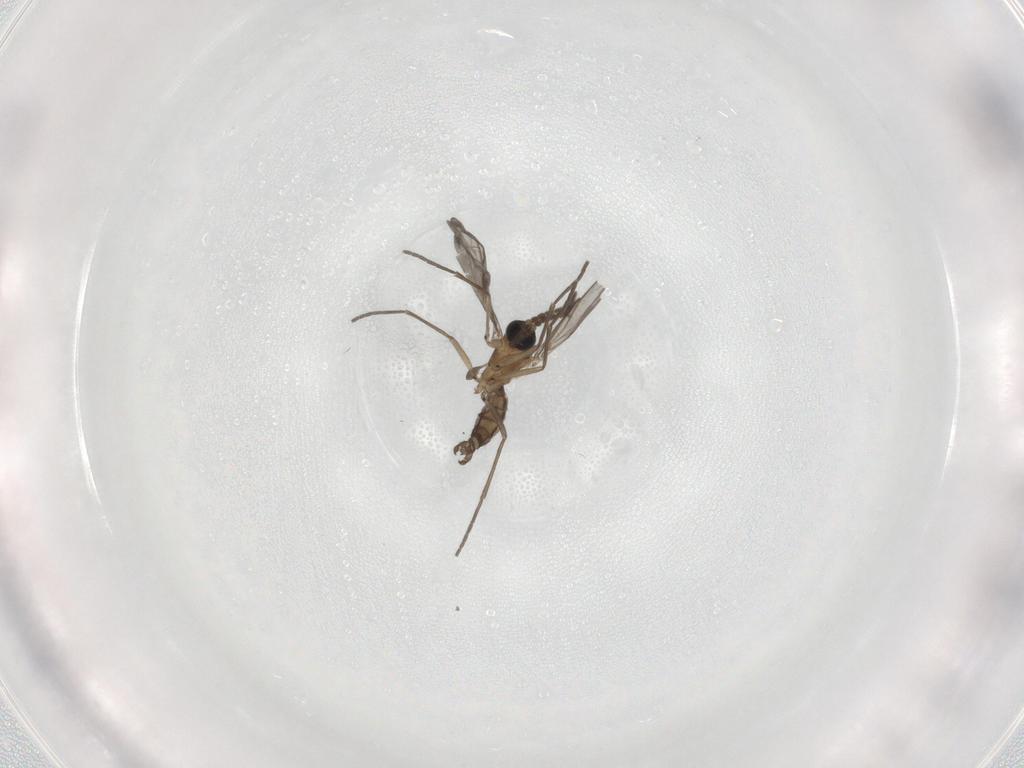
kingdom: Animalia
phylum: Arthropoda
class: Insecta
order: Diptera
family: Sciaridae
